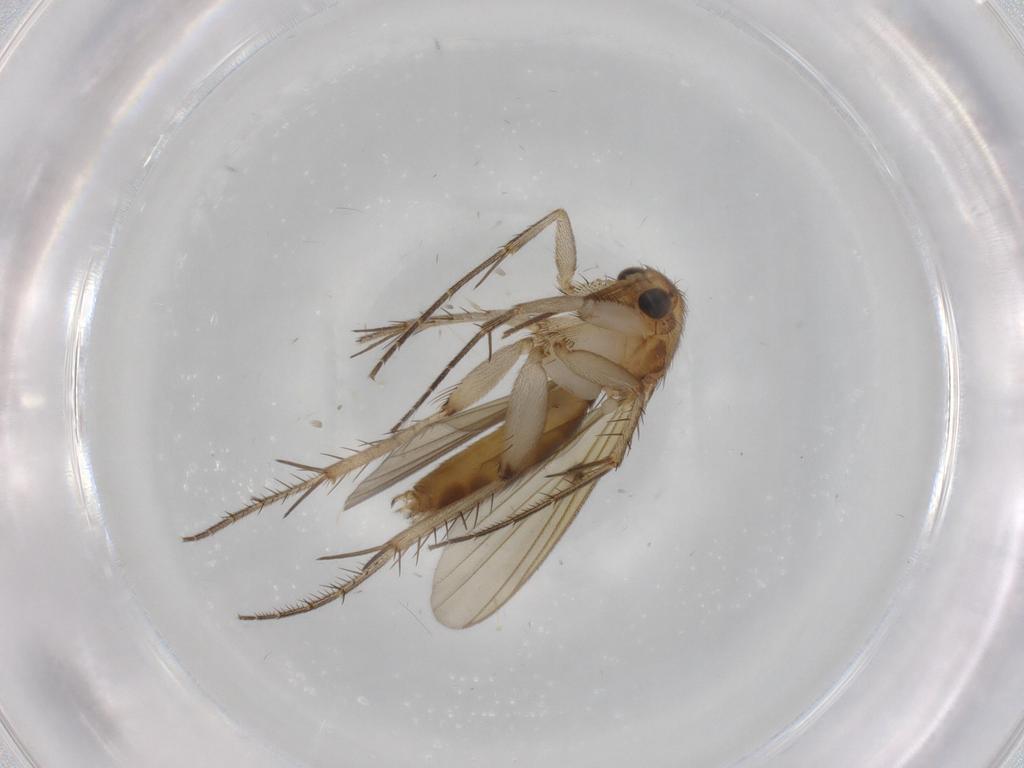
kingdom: Animalia
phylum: Arthropoda
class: Insecta
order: Diptera
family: Mycetophilidae
